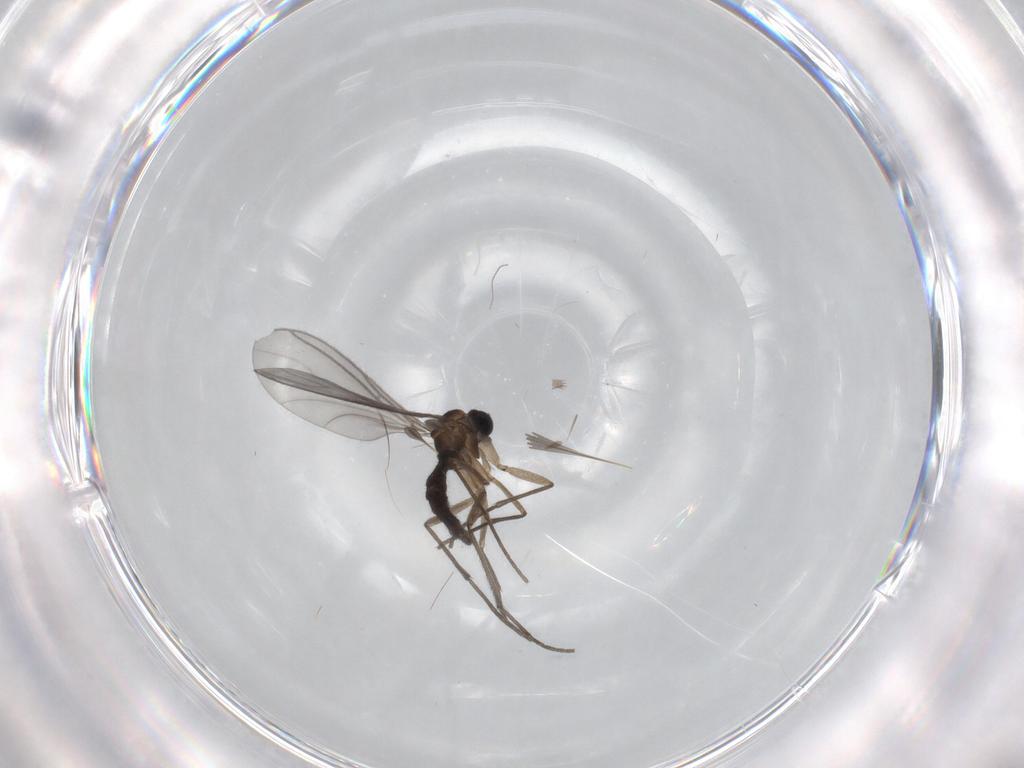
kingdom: Animalia
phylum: Arthropoda
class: Insecta
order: Diptera
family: Sciaridae
